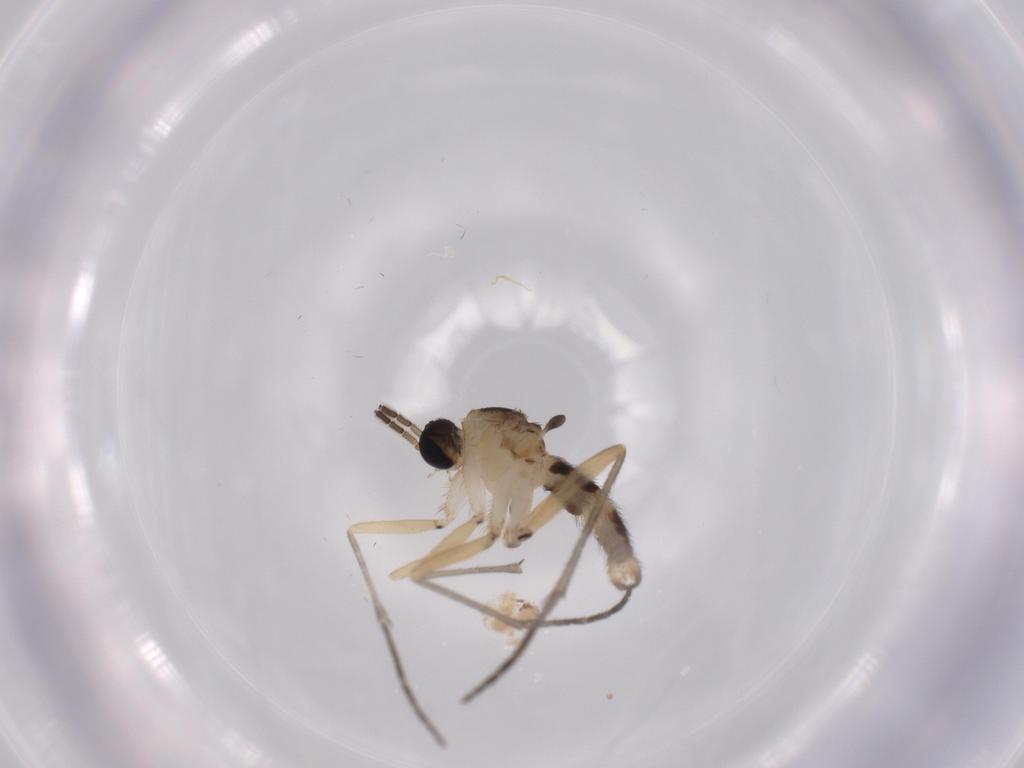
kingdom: Animalia
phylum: Arthropoda
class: Insecta
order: Diptera
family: Sciaridae
